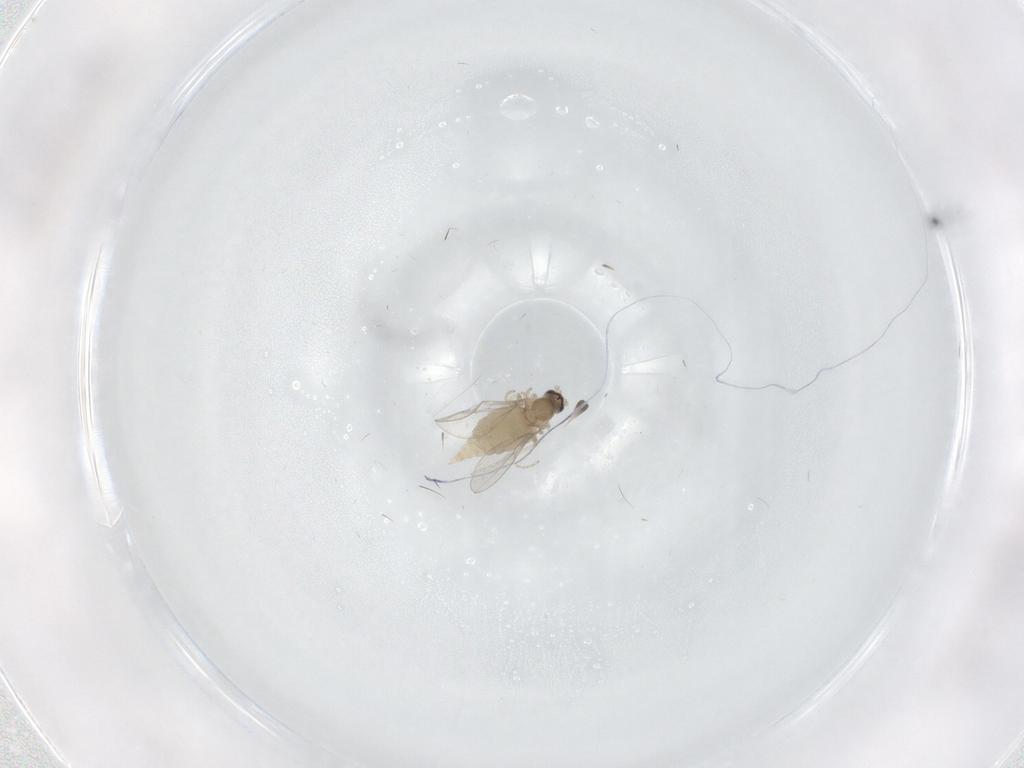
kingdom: Animalia
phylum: Arthropoda
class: Insecta
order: Diptera
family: Cecidomyiidae
